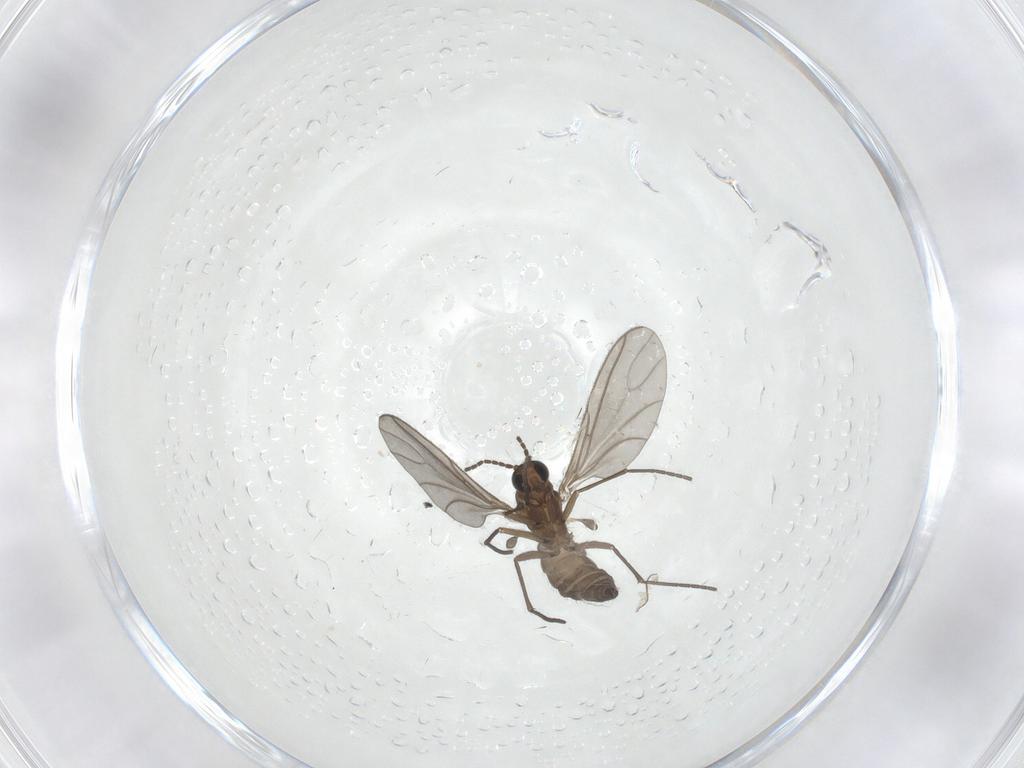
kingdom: Animalia
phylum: Arthropoda
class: Insecta
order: Diptera
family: Sciaridae
